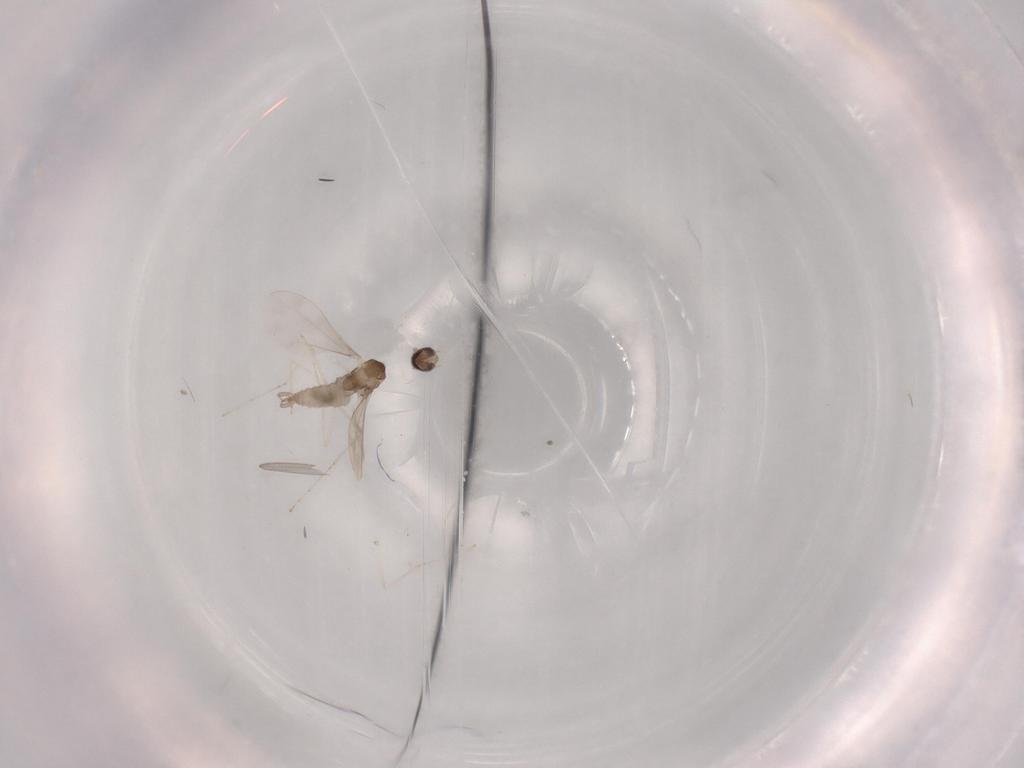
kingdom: Animalia
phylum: Arthropoda
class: Insecta
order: Diptera
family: Cecidomyiidae
